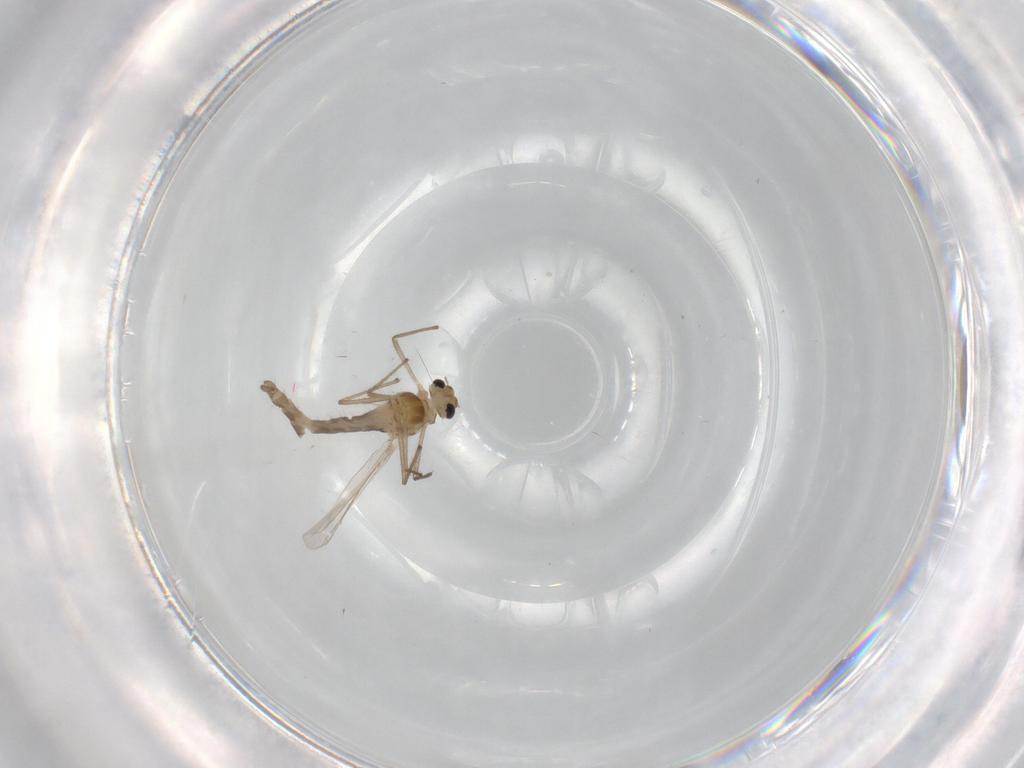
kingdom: Animalia
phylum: Arthropoda
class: Insecta
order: Diptera
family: Chironomidae
